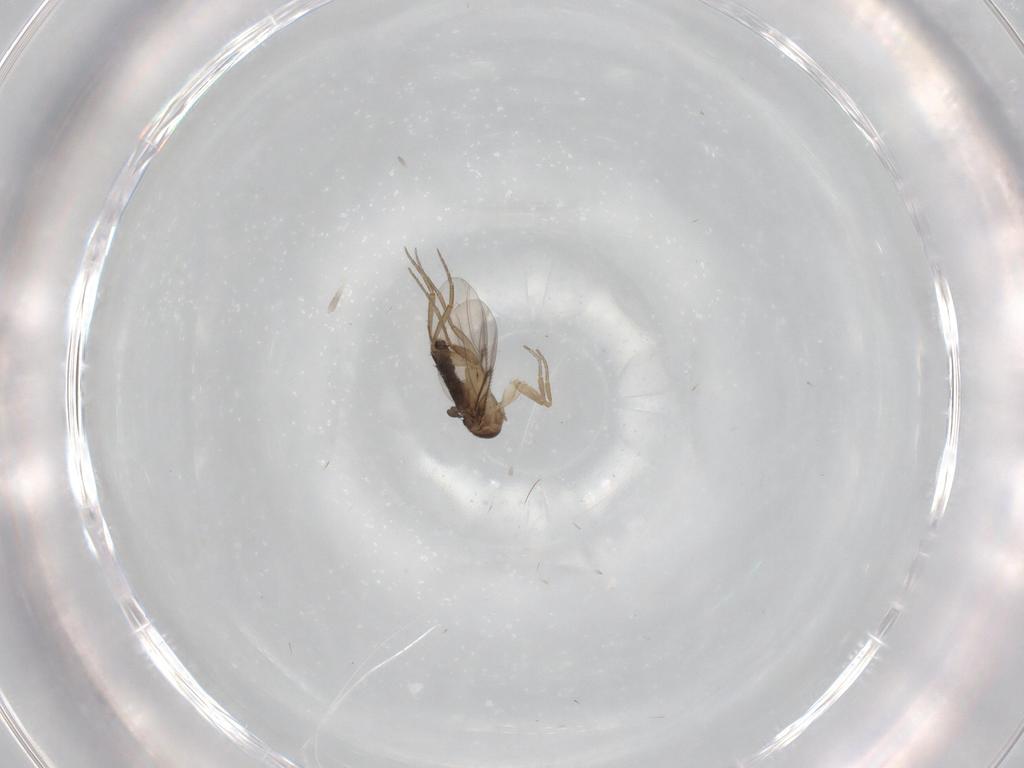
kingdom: Animalia
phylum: Arthropoda
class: Insecta
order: Diptera
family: Phoridae
